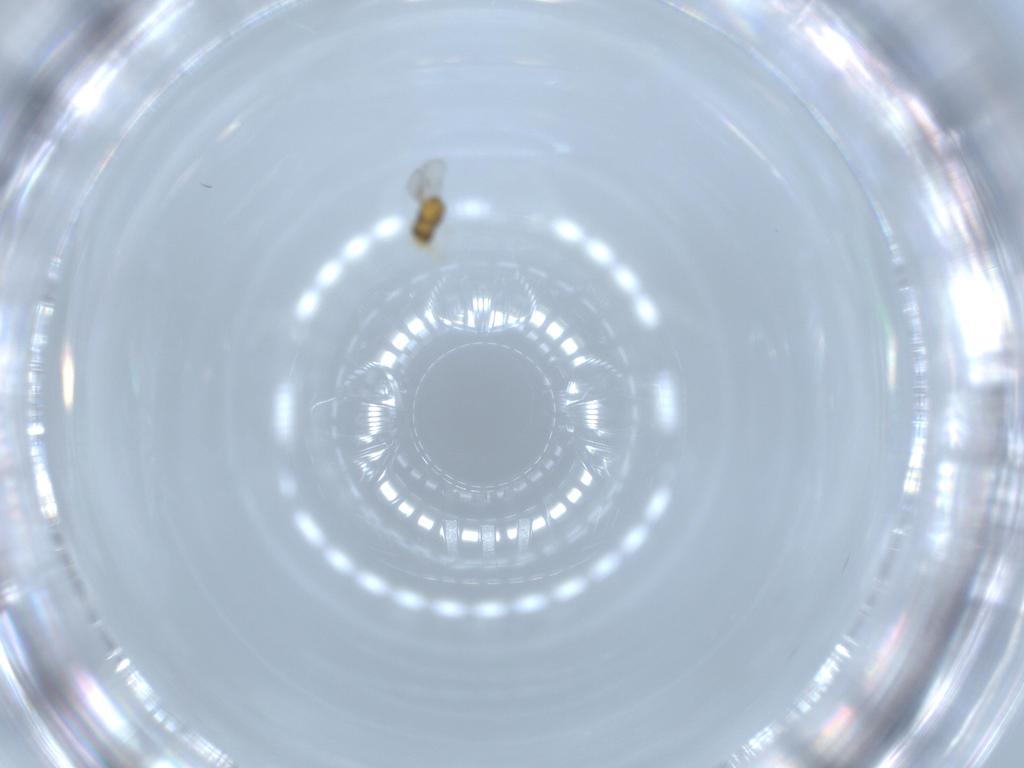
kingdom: Animalia
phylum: Arthropoda
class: Insecta
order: Hymenoptera
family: Aphelinidae
